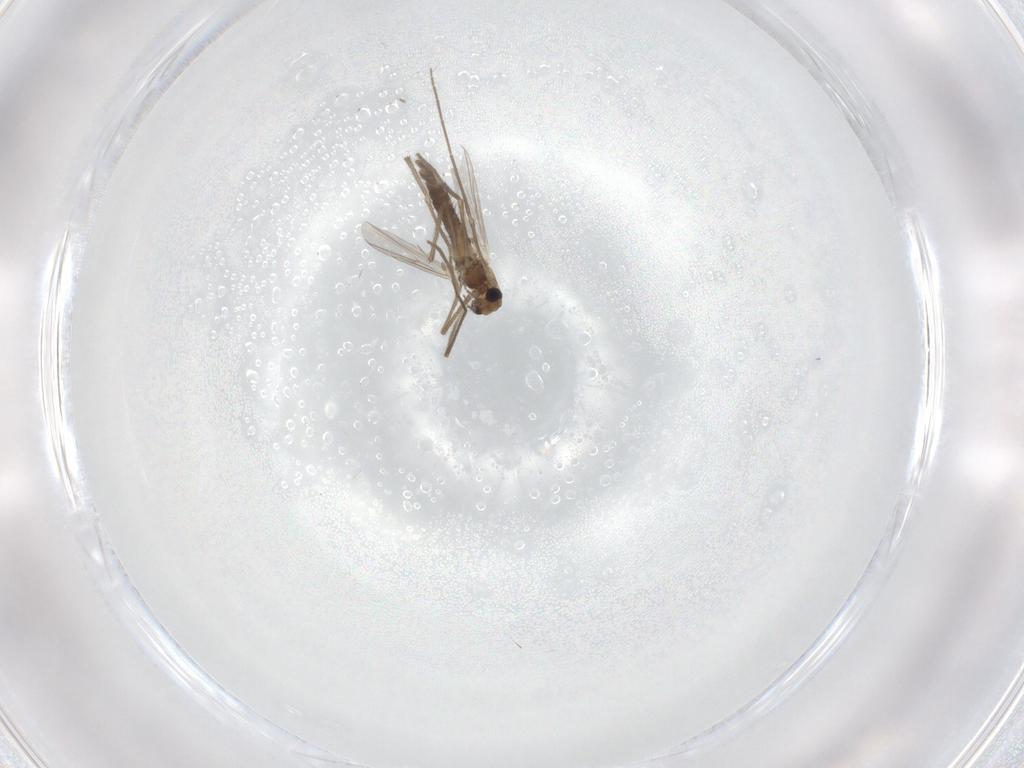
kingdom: Animalia
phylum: Arthropoda
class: Insecta
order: Diptera
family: Chironomidae
